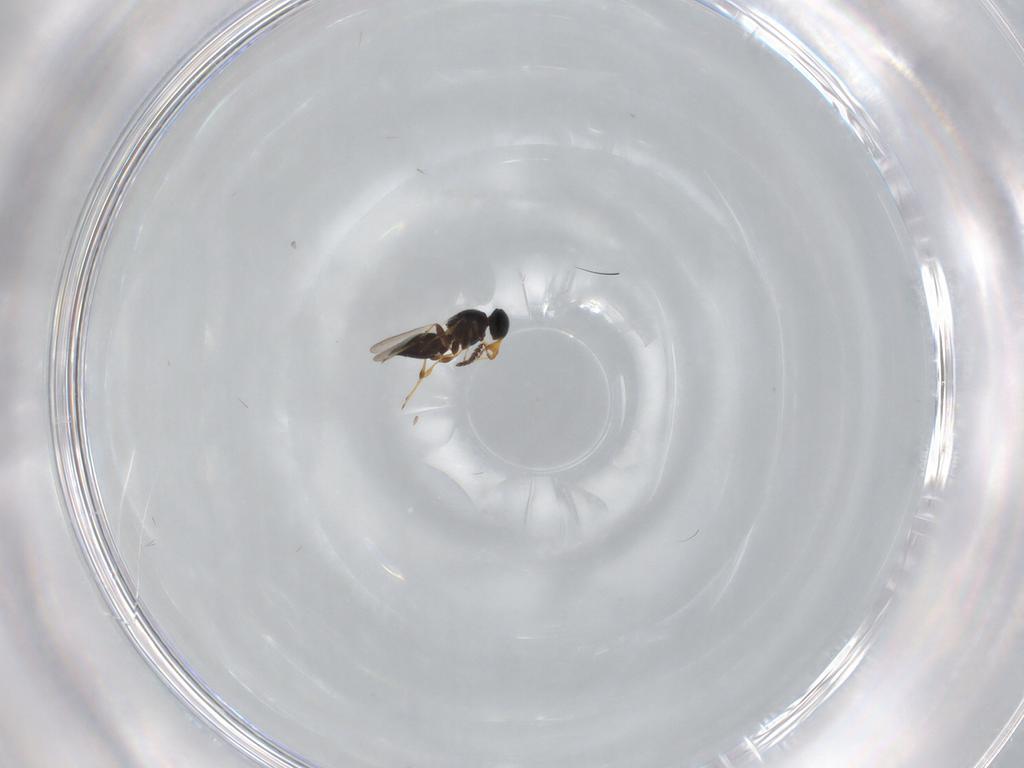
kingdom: Animalia
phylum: Arthropoda
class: Insecta
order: Hymenoptera
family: Platygastridae
